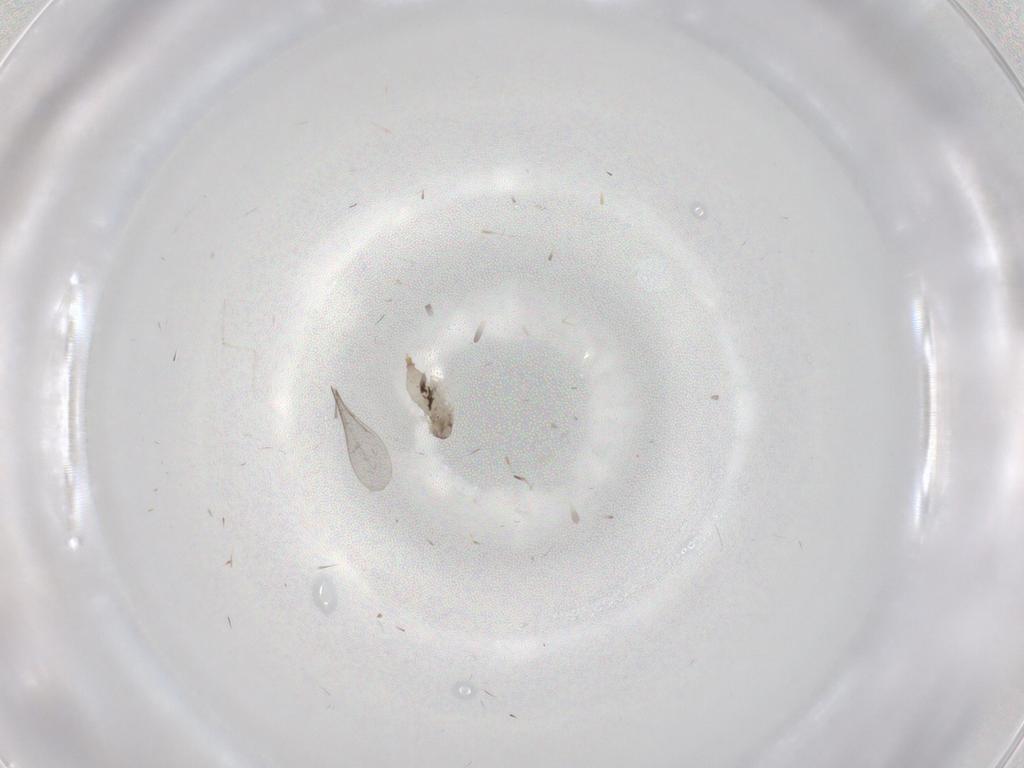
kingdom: Animalia
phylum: Arthropoda
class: Insecta
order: Diptera
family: Cecidomyiidae
